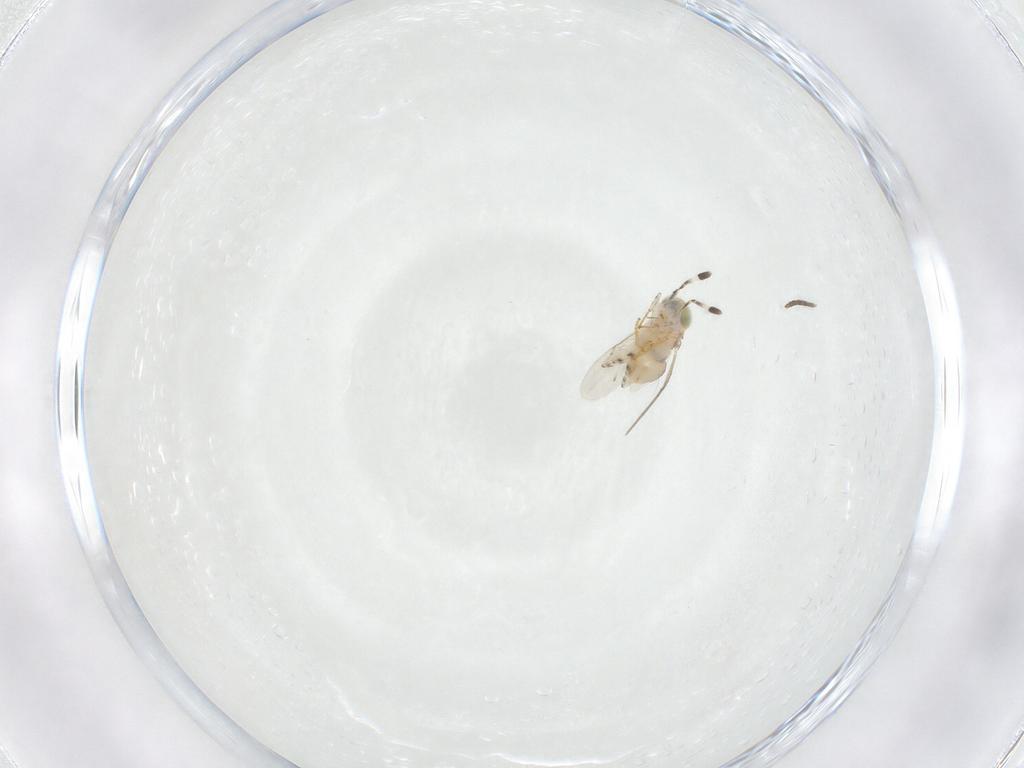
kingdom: Animalia
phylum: Arthropoda
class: Insecta
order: Hymenoptera
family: Encyrtidae
